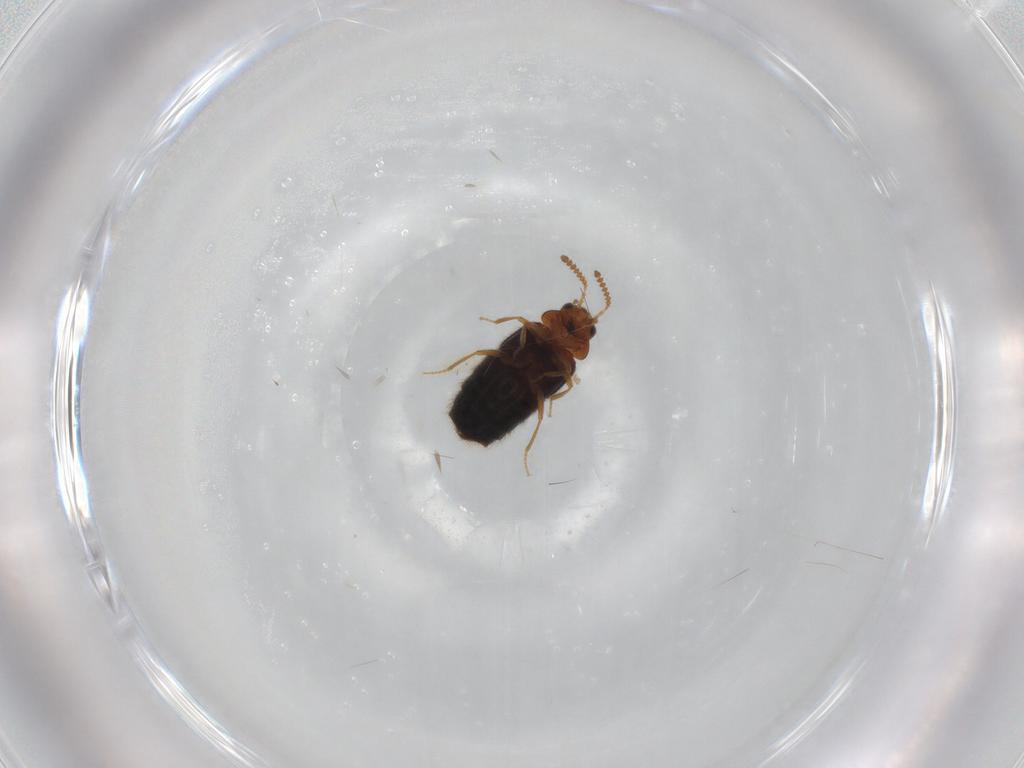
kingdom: Animalia
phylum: Arthropoda
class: Insecta
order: Coleoptera
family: Staphylinidae
